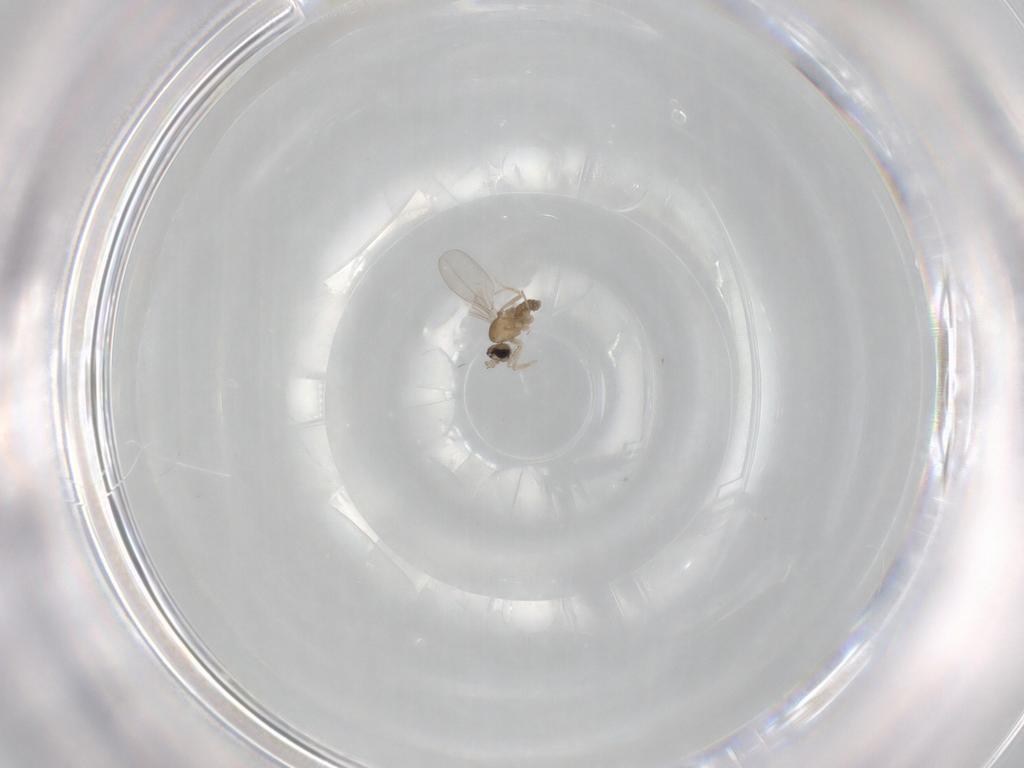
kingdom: Animalia
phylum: Arthropoda
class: Insecta
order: Diptera
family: Cecidomyiidae
